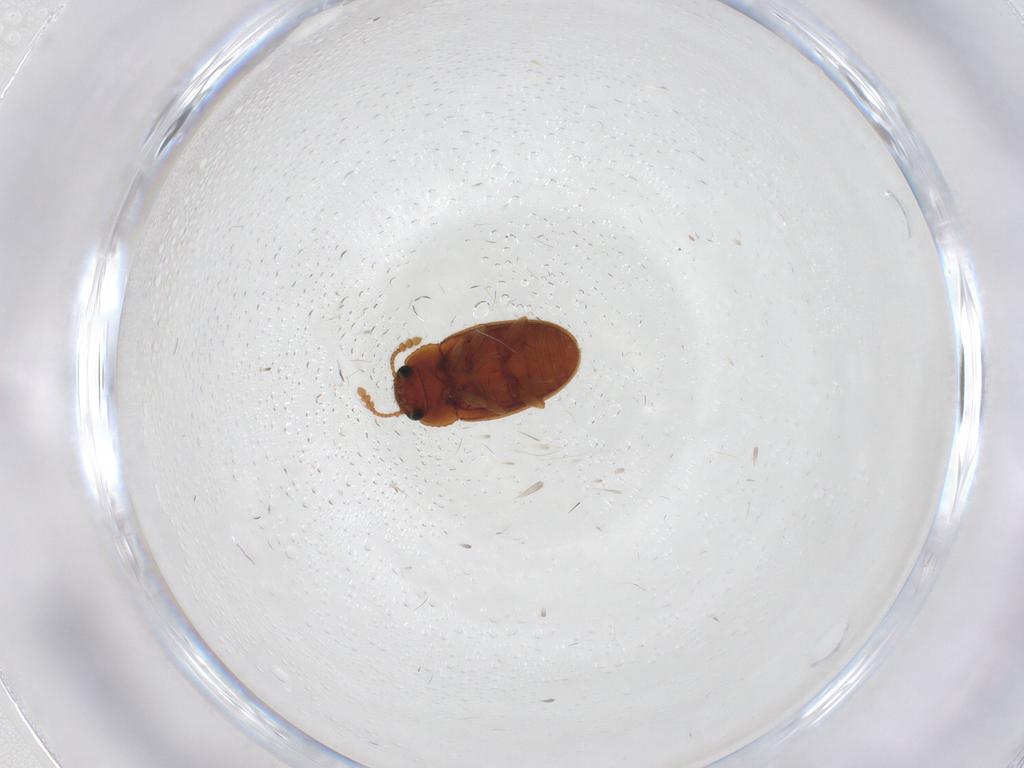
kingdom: Animalia
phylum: Arthropoda
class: Insecta
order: Coleoptera
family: Chelonariidae
